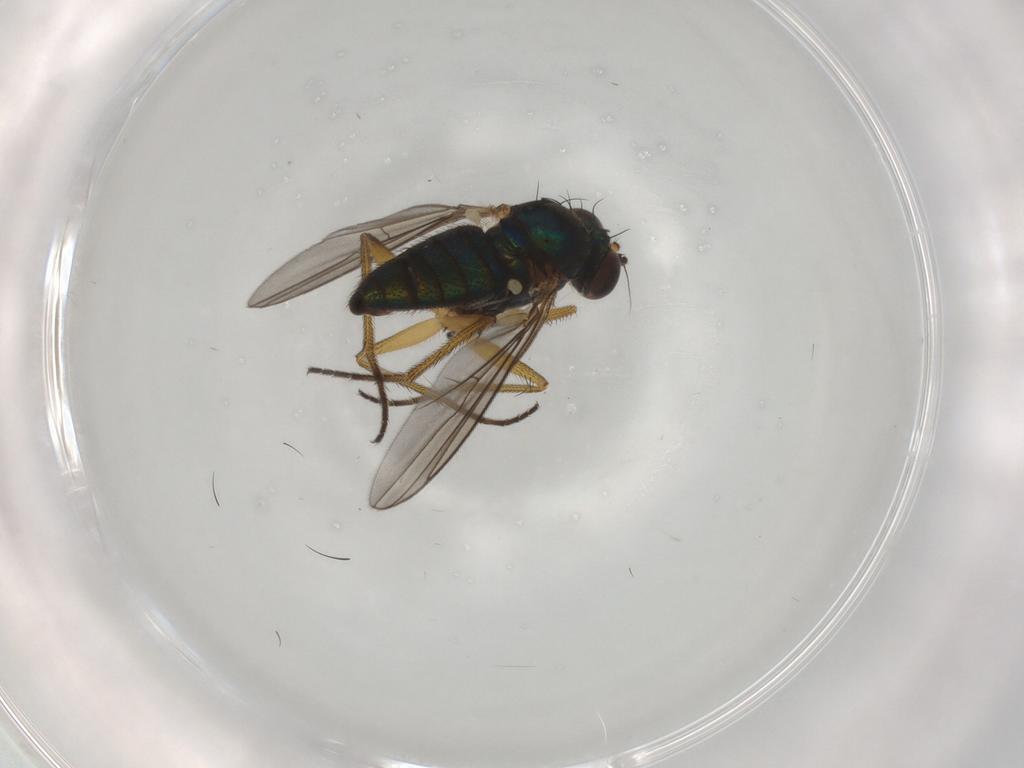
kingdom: Animalia
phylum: Arthropoda
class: Insecta
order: Diptera
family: Dolichopodidae
